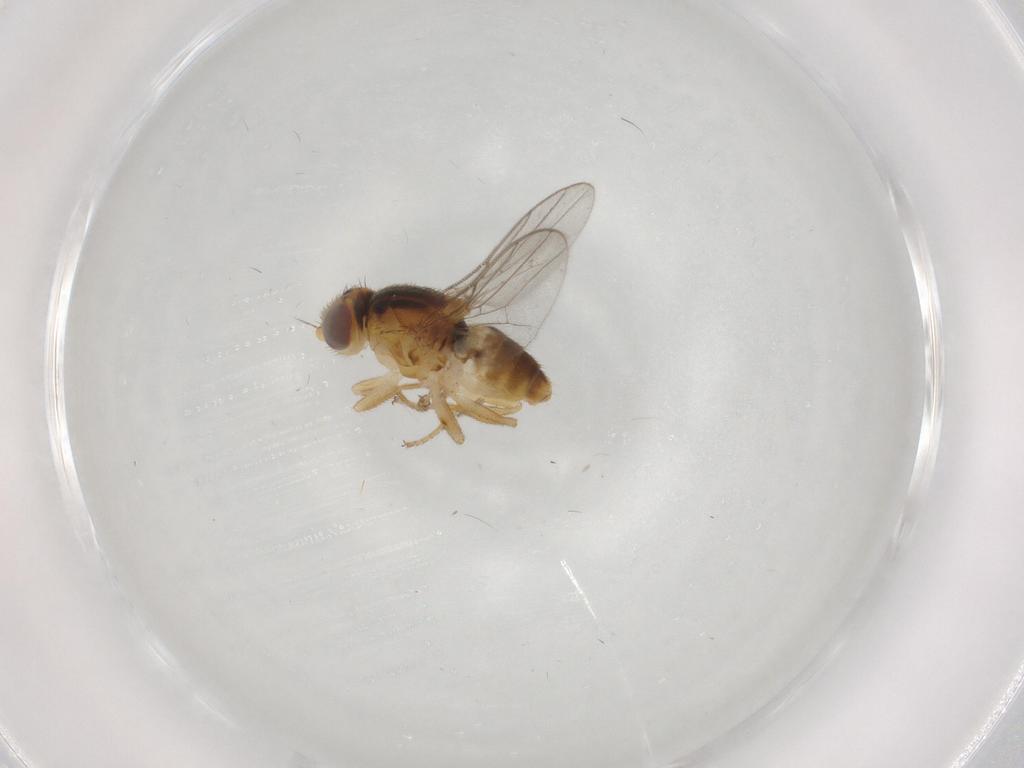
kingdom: Animalia
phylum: Arthropoda
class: Insecta
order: Diptera
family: Chloropidae
